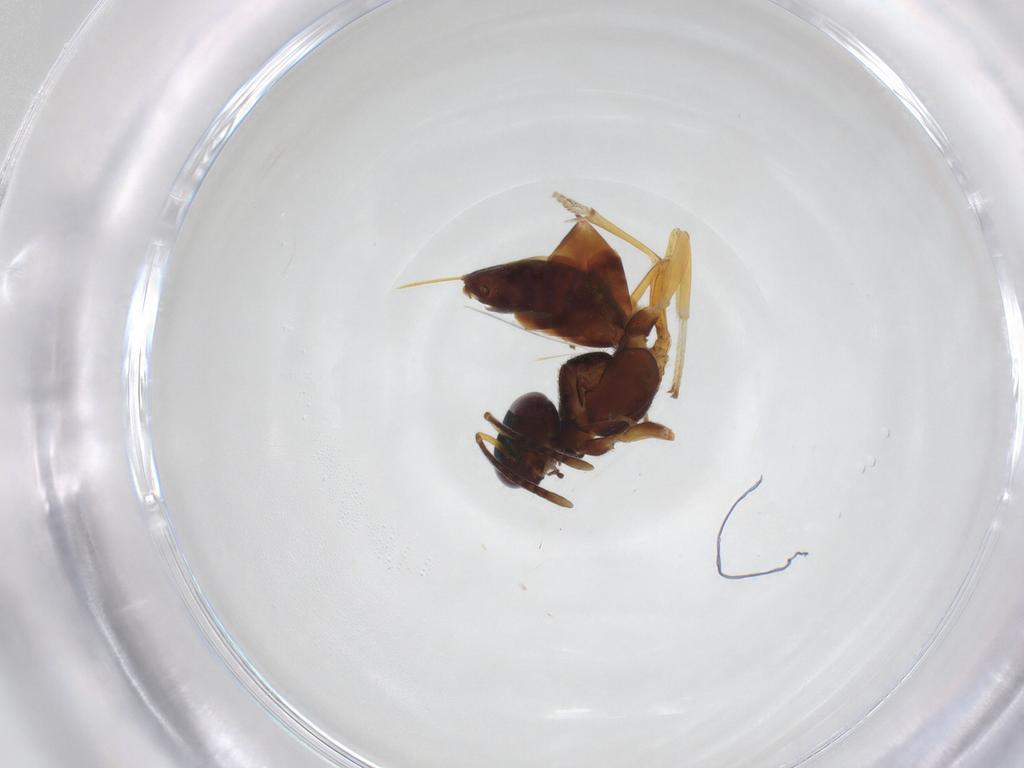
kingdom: Animalia
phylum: Arthropoda
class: Insecta
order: Hymenoptera
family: Eupelmidae
